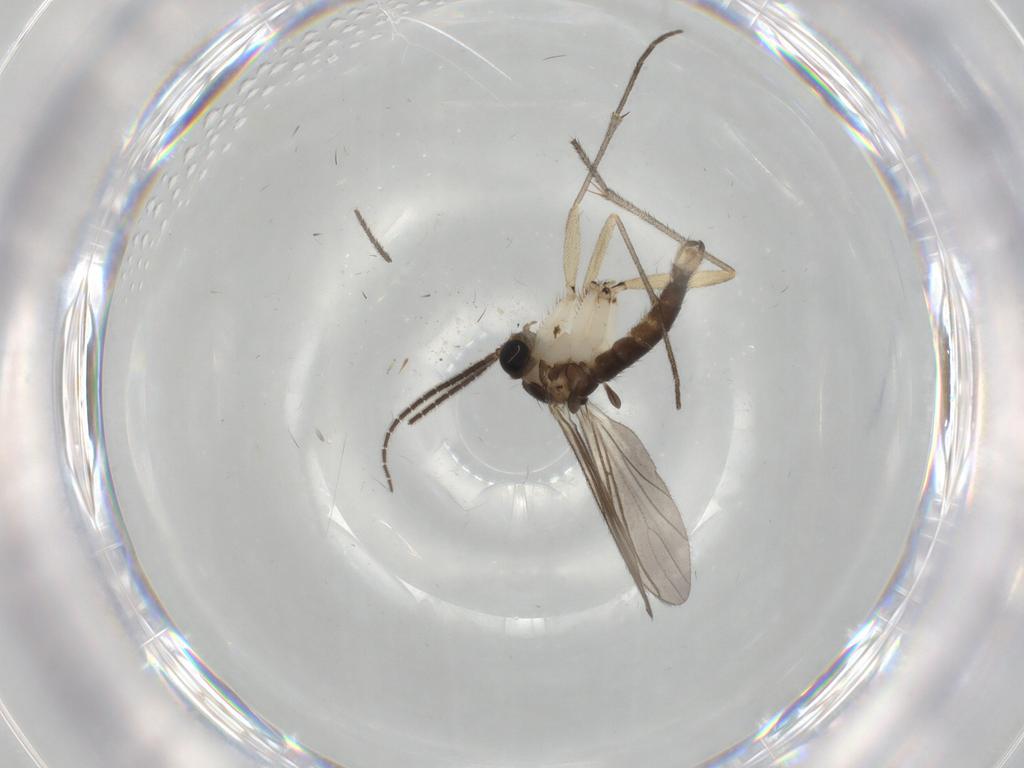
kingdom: Animalia
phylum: Arthropoda
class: Insecta
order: Diptera
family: Sciaridae
